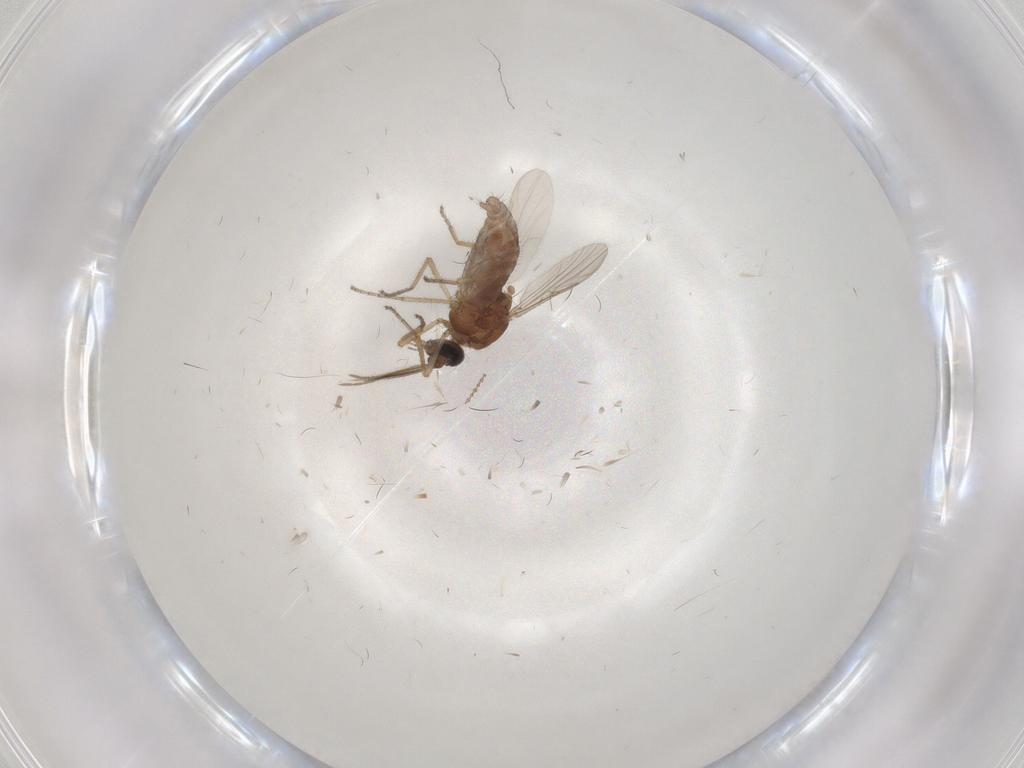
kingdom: Animalia
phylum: Arthropoda
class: Insecta
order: Diptera
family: Ceratopogonidae
